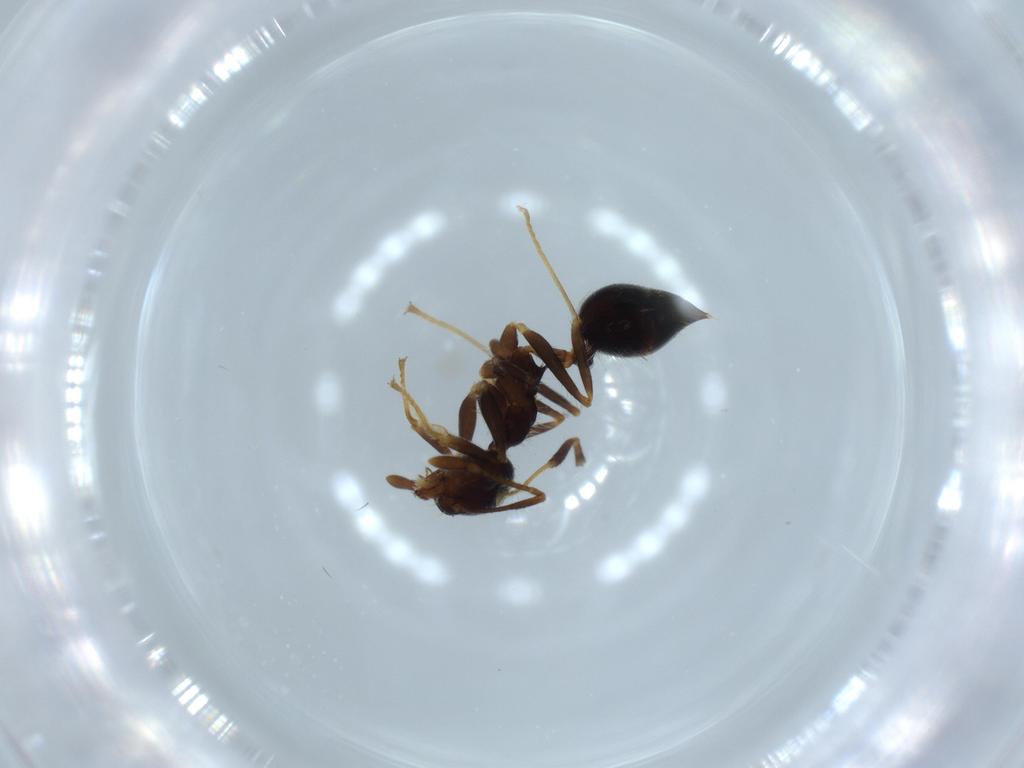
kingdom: Animalia
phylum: Arthropoda
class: Insecta
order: Hymenoptera
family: Formicidae
